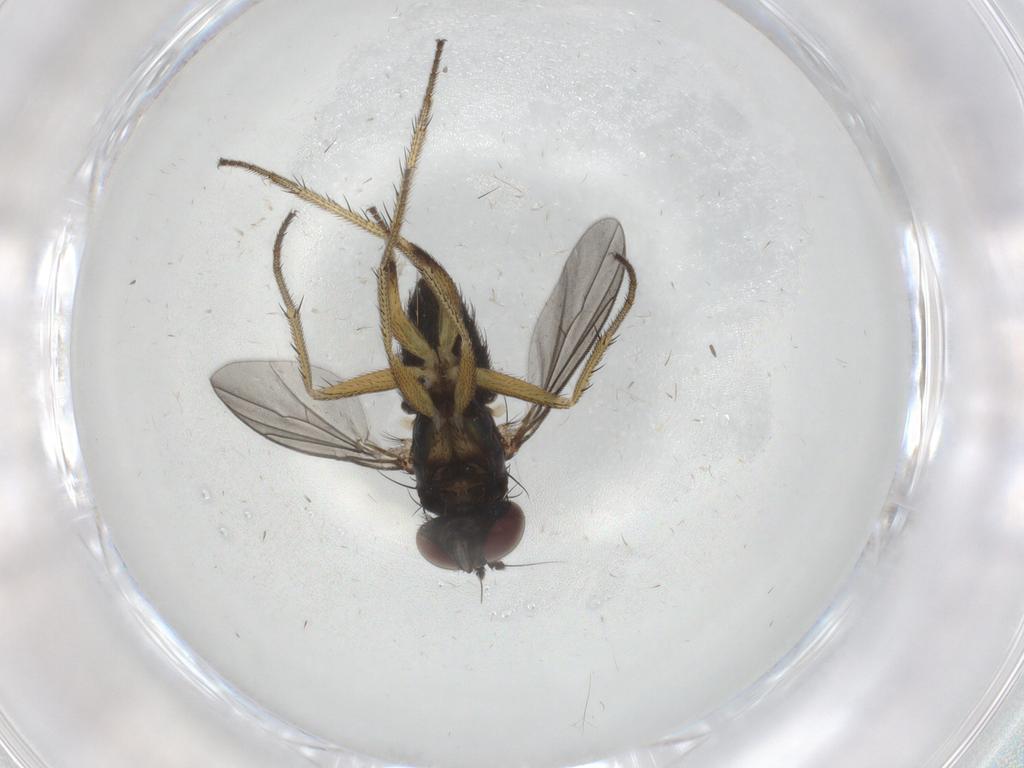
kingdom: Animalia
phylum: Arthropoda
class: Insecta
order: Diptera
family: Dolichopodidae
